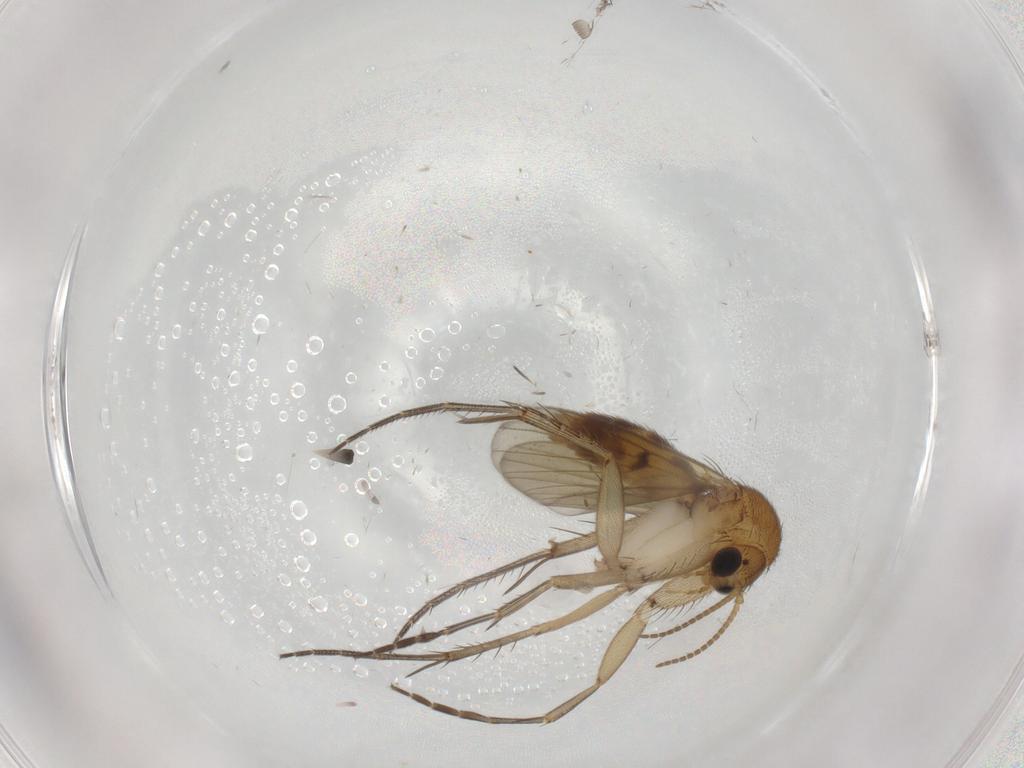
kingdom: Animalia
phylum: Arthropoda
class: Insecta
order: Diptera
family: Mycetophilidae
